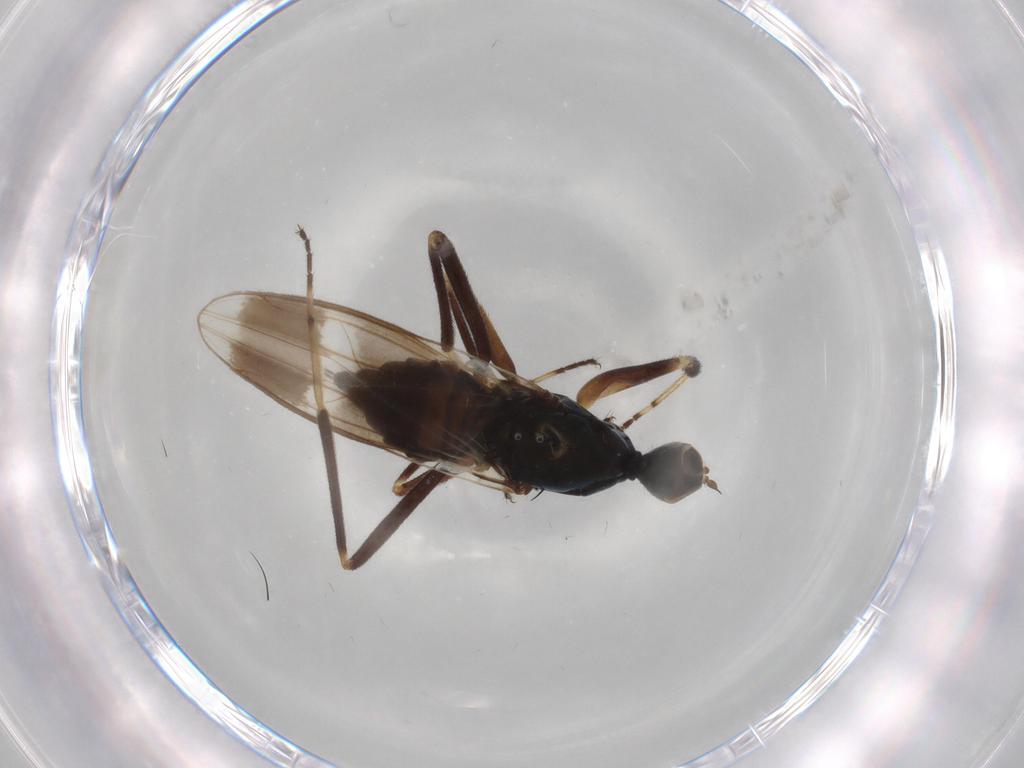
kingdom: Animalia
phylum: Arthropoda
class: Insecta
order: Diptera
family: Hybotidae
